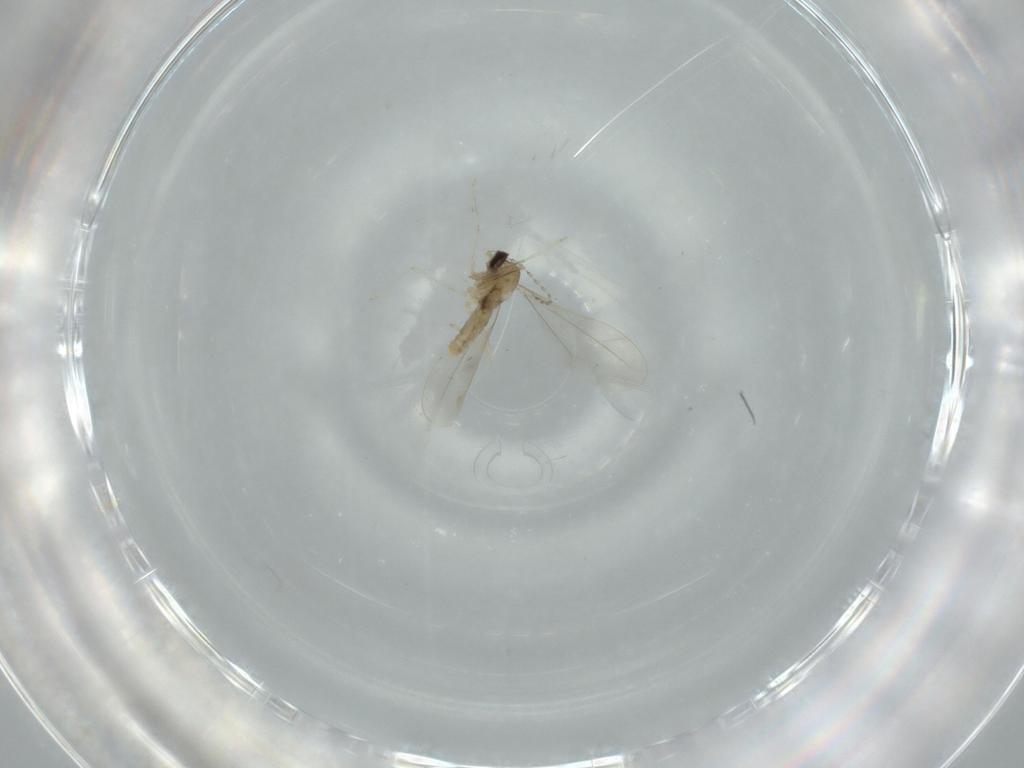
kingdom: Animalia
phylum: Arthropoda
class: Insecta
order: Diptera
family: Cecidomyiidae
